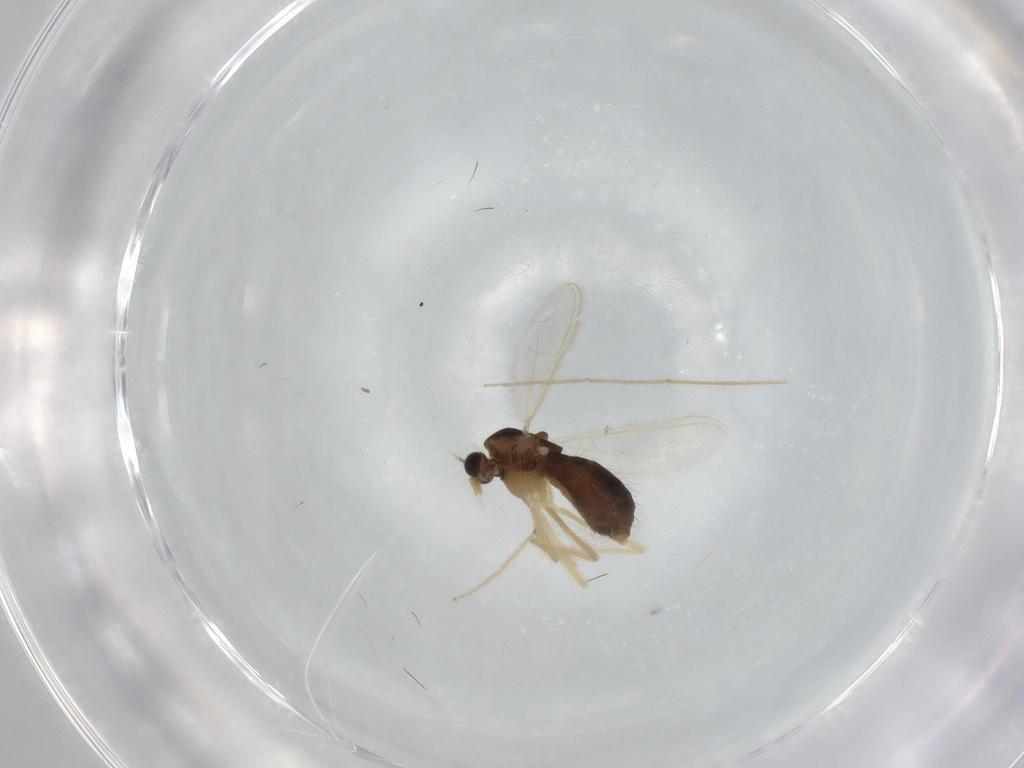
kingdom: Animalia
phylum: Arthropoda
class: Insecta
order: Diptera
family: Chironomidae
